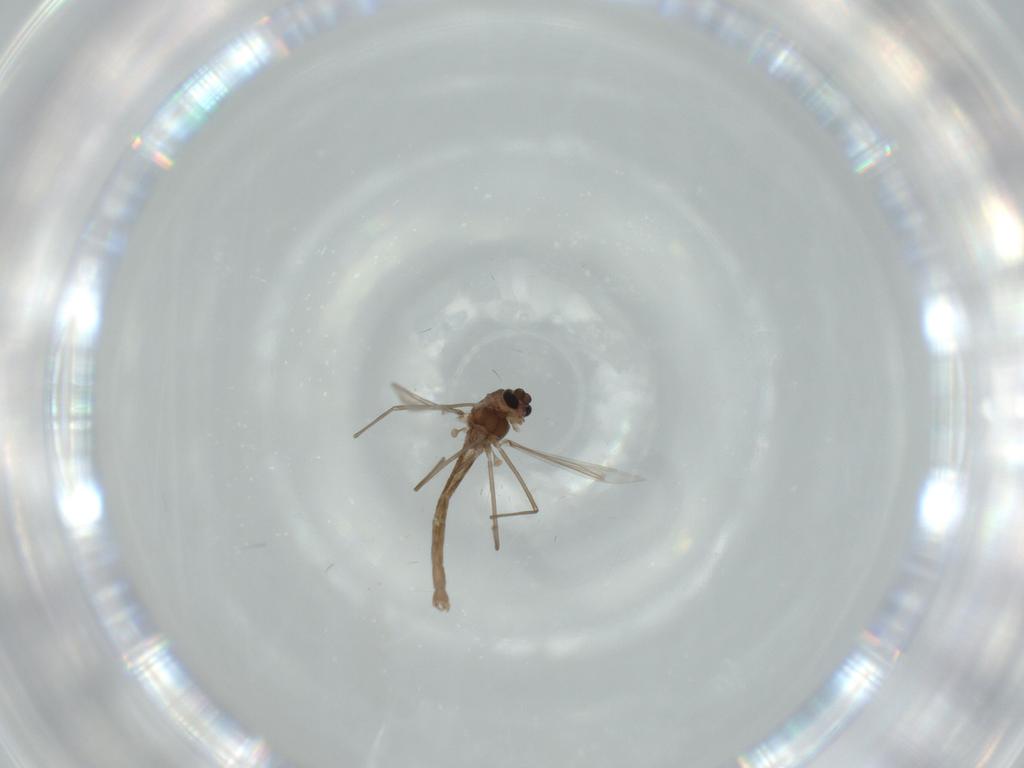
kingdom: Animalia
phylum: Arthropoda
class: Insecta
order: Diptera
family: Chironomidae
